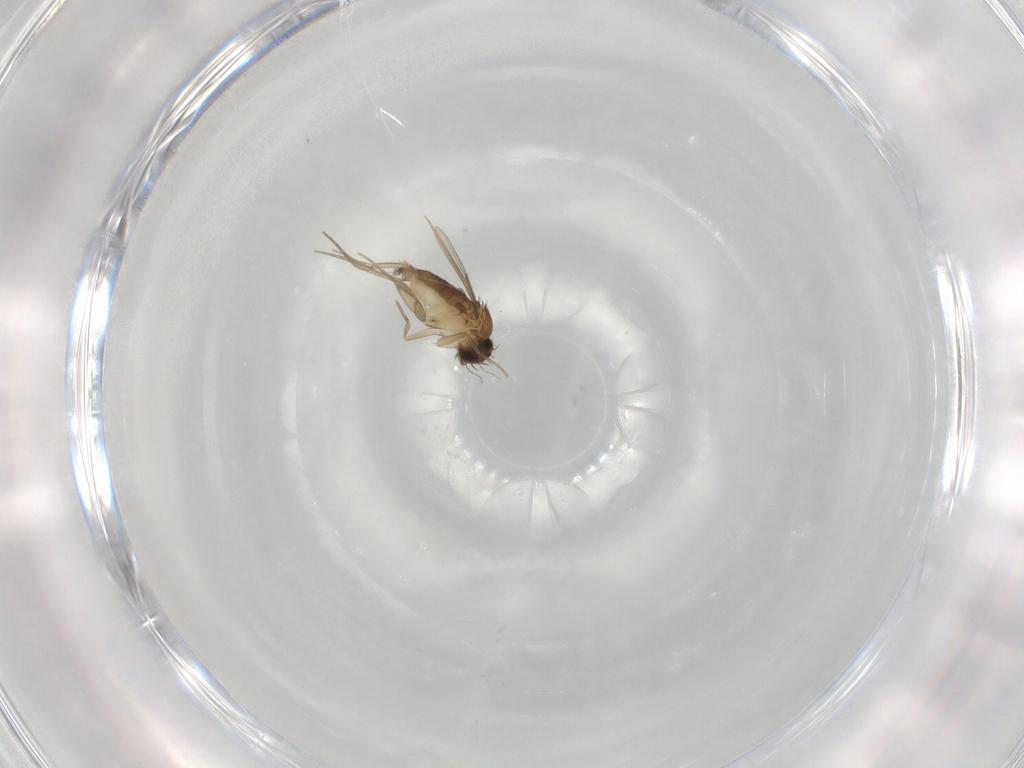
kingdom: Animalia
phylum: Arthropoda
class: Insecta
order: Diptera
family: Phoridae
